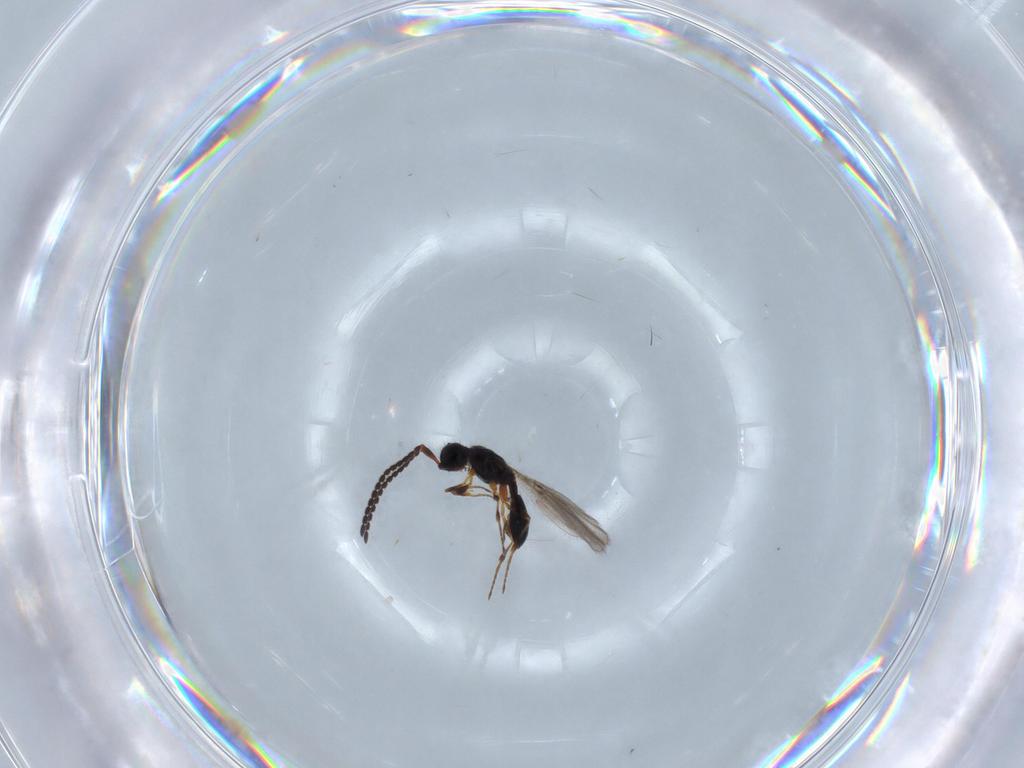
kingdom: Animalia
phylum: Arthropoda
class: Insecta
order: Hymenoptera
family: Diapriidae
